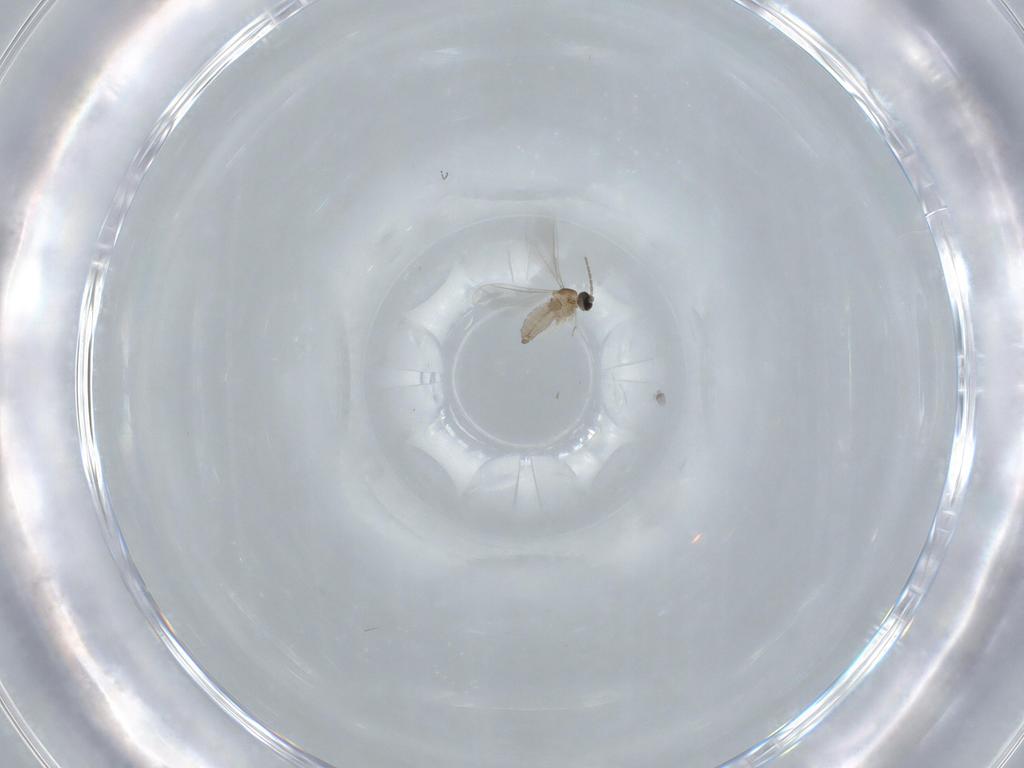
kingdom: Animalia
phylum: Arthropoda
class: Insecta
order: Diptera
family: Cecidomyiidae
